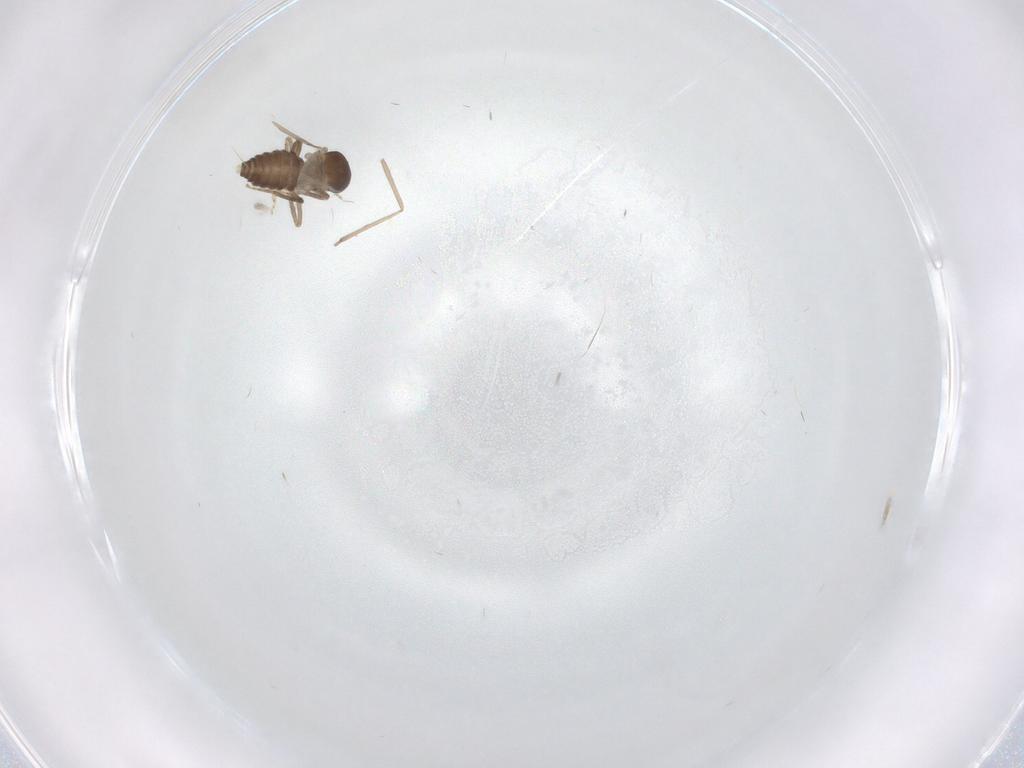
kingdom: Animalia
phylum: Arthropoda
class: Insecta
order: Diptera
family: Ceratopogonidae
